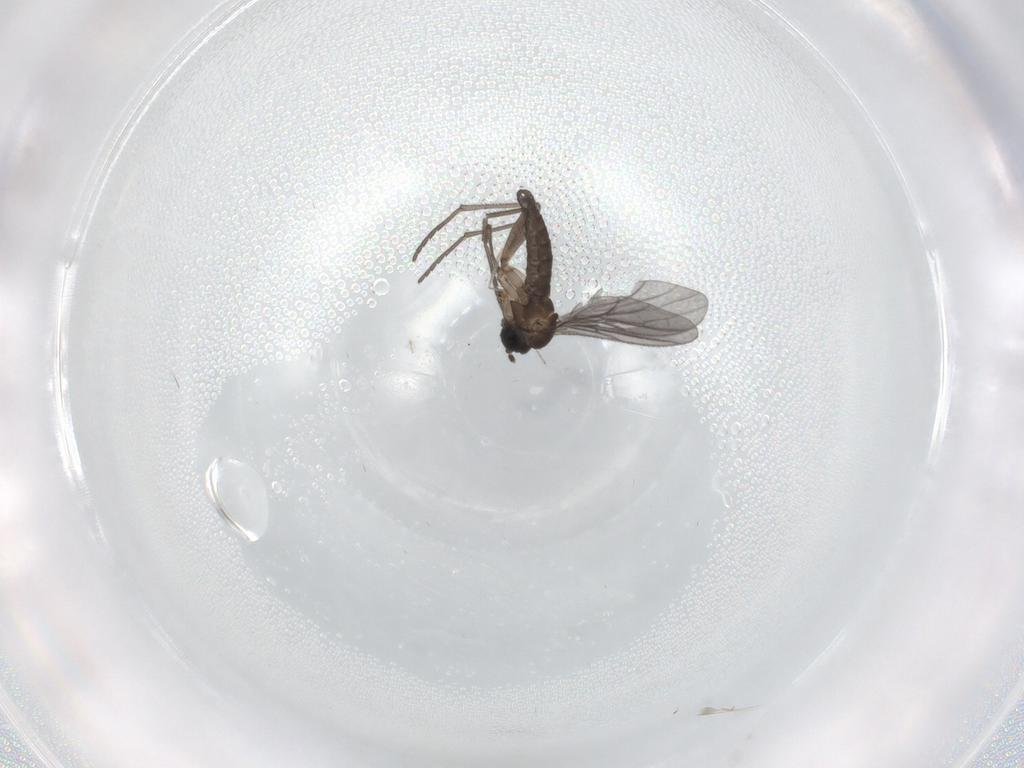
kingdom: Animalia
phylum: Arthropoda
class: Insecta
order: Diptera
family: Sciaridae
